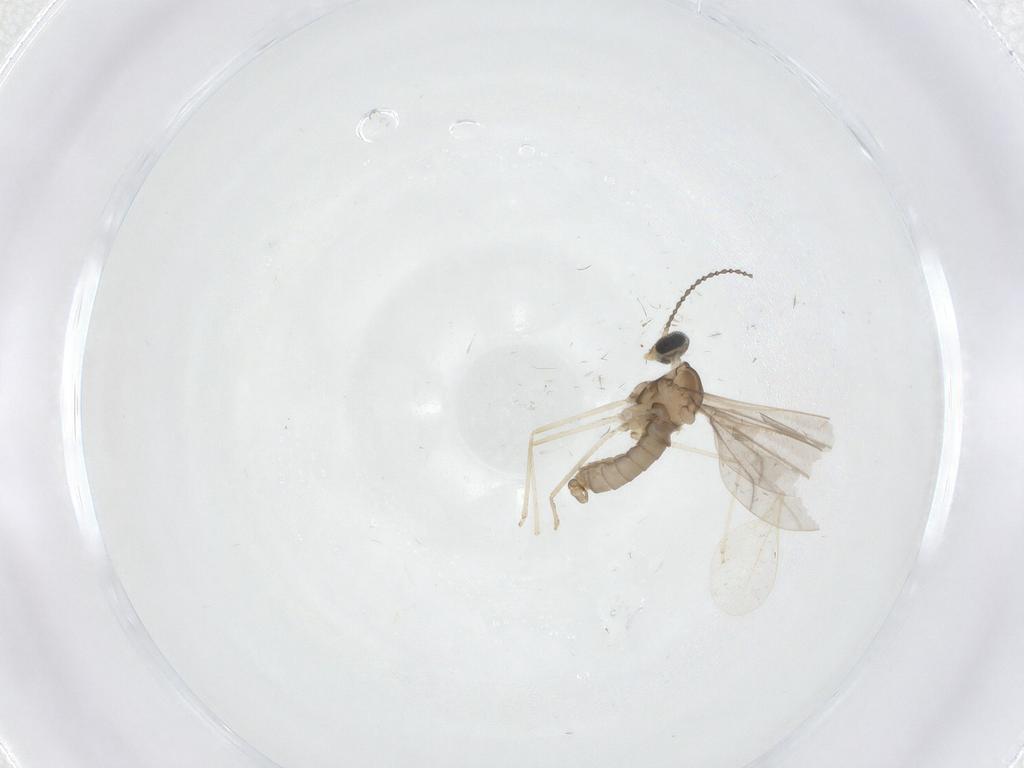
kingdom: Animalia
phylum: Arthropoda
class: Insecta
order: Diptera
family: Cecidomyiidae
